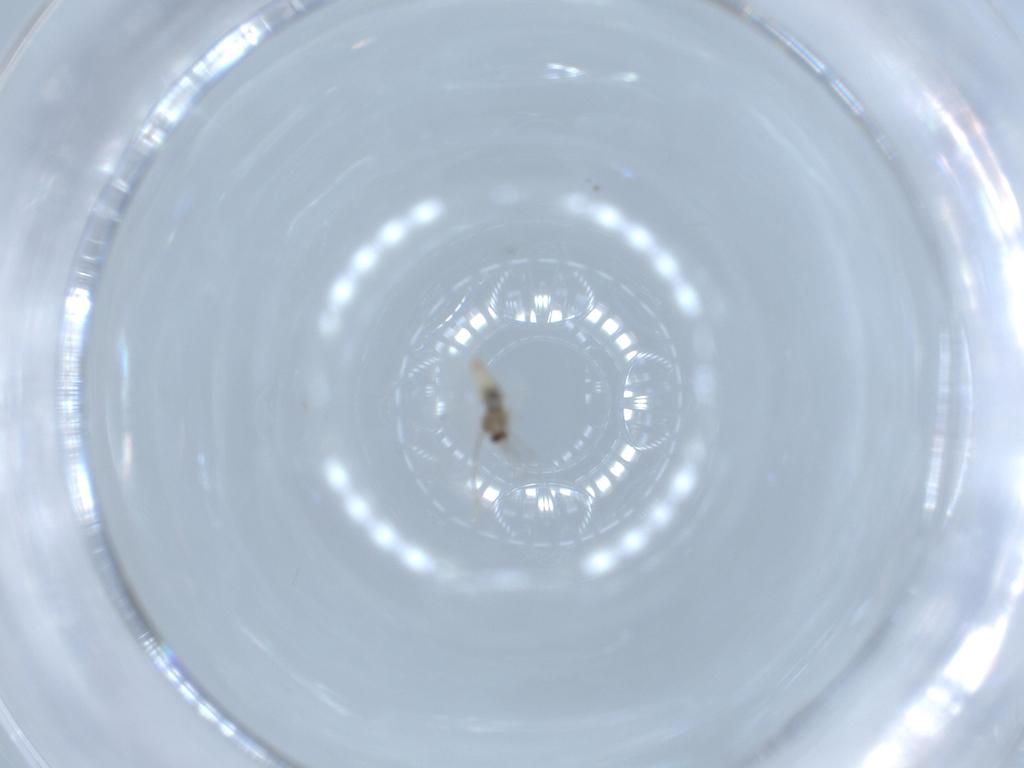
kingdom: Animalia
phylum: Arthropoda
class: Insecta
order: Diptera
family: Cecidomyiidae
